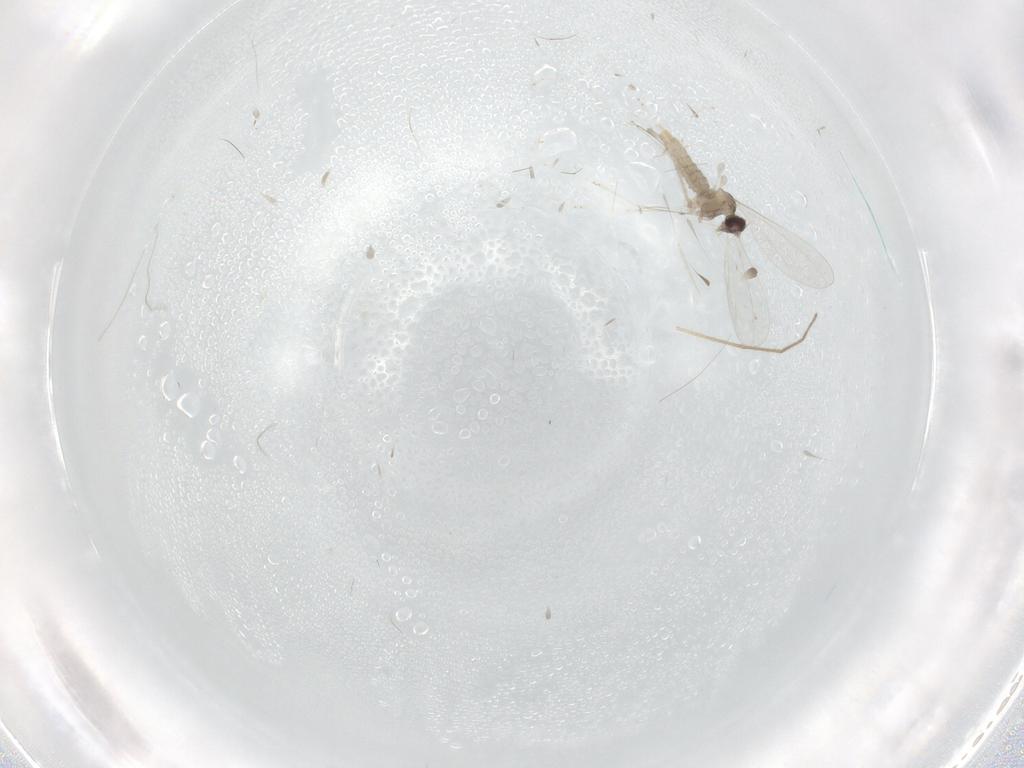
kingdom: Animalia
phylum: Arthropoda
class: Insecta
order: Diptera
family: Cecidomyiidae
